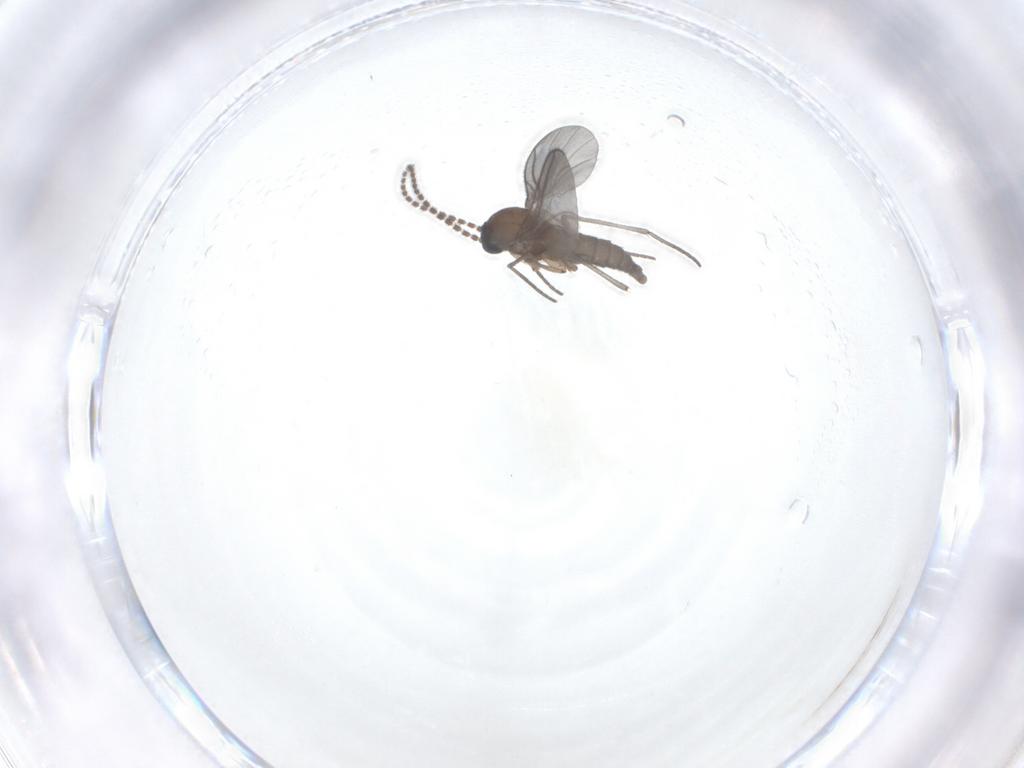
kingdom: Animalia
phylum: Arthropoda
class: Insecta
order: Diptera
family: Sciaridae
